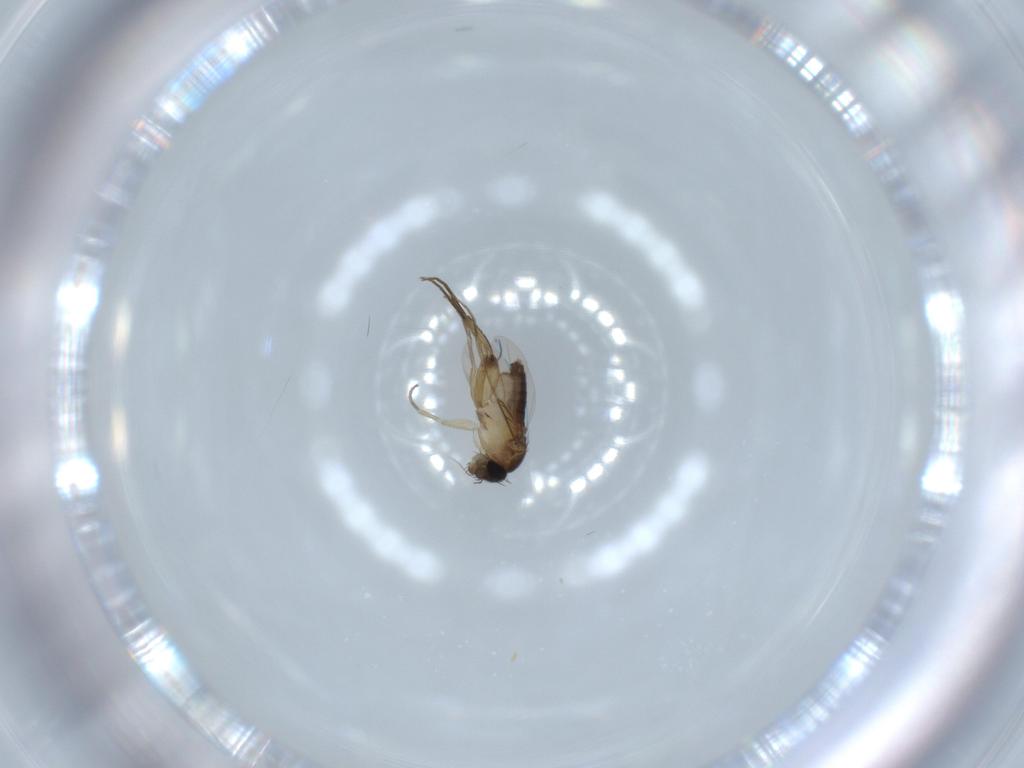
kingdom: Animalia
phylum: Arthropoda
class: Insecta
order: Diptera
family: Phoridae
